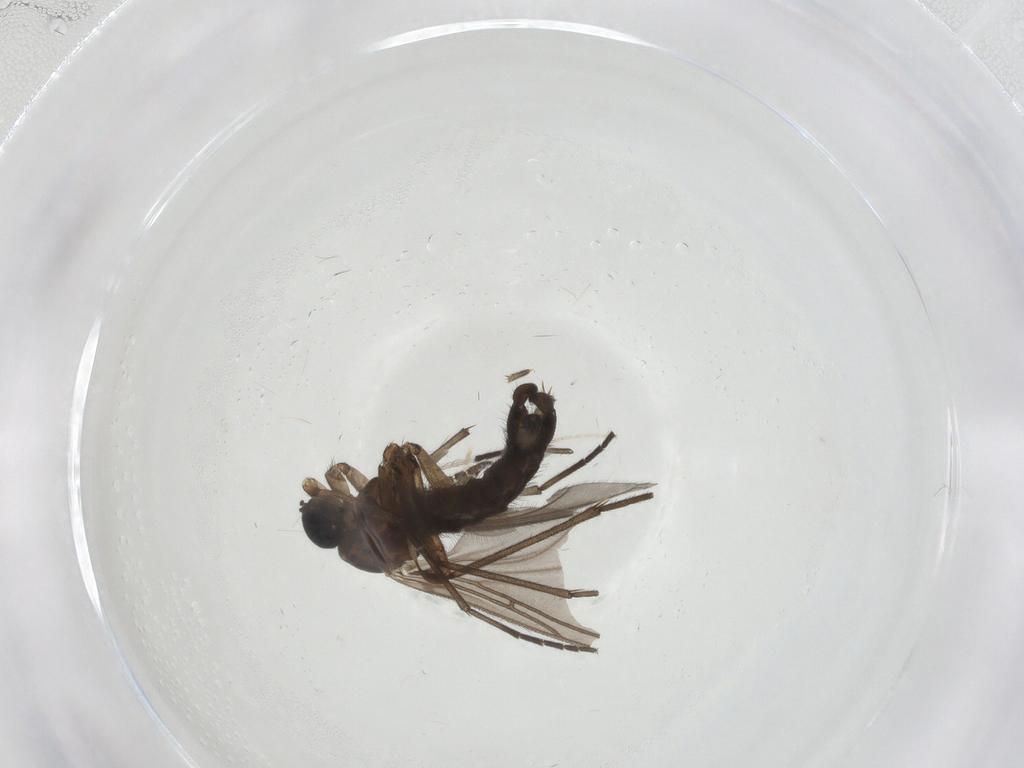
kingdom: Animalia
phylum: Arthropoda
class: Insecta
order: Diptera
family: Sciaridae
